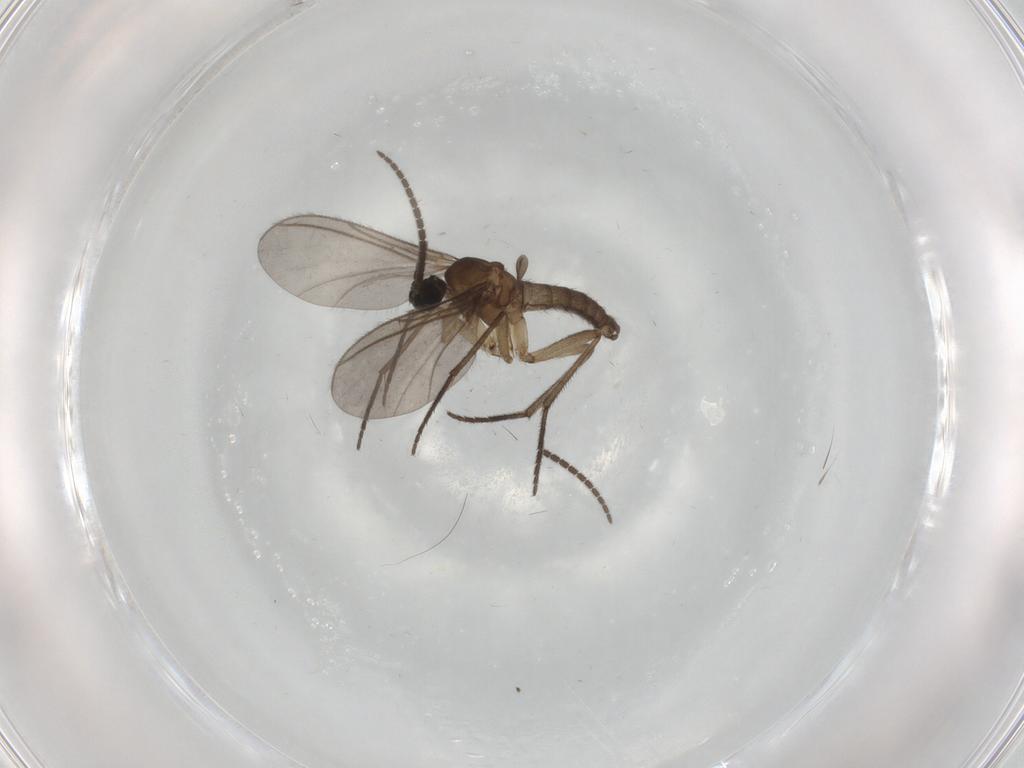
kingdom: Animalia
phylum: Arthropoda
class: Insecta
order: Diptera
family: Sciaridae
